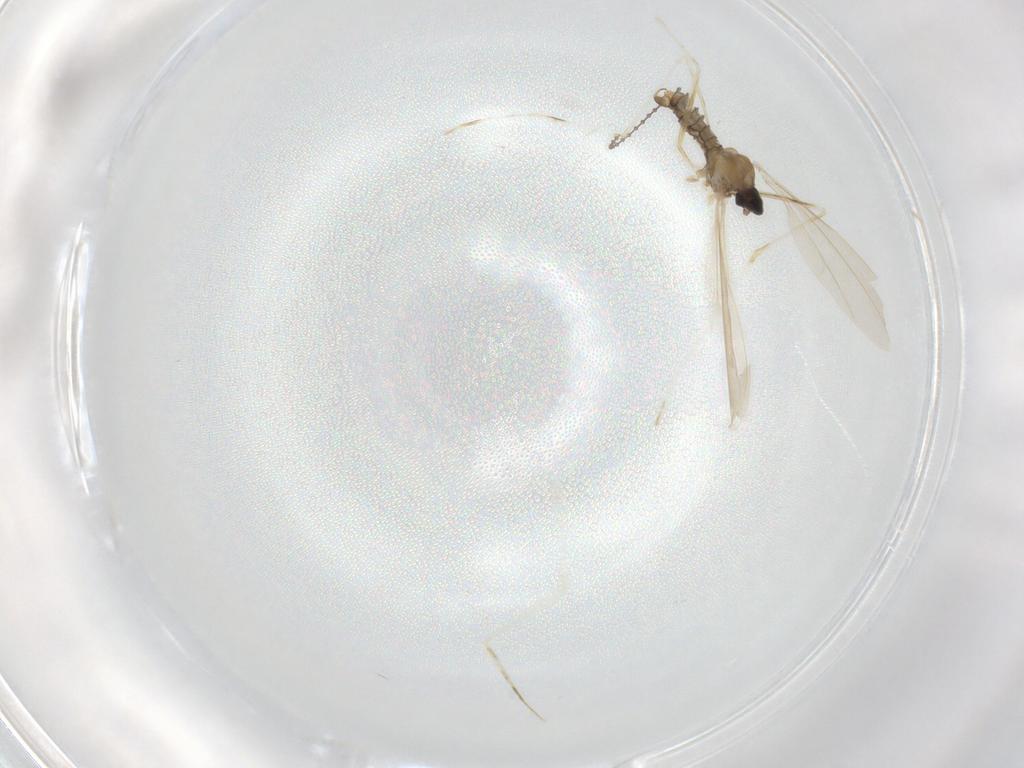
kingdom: Animalia
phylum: Arthropoda
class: Insecta
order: Diptera
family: Cecidomyiidae
